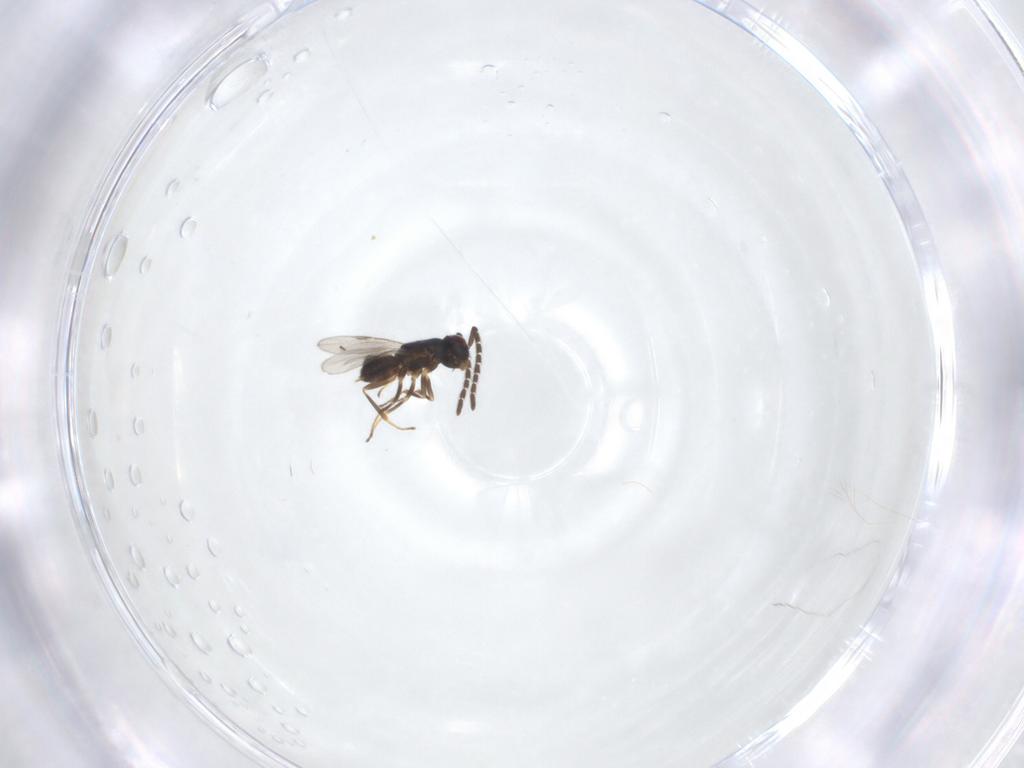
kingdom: Animalia
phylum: Arthropoda
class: Insecta
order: Hymenoptera
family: Encyrtidae
